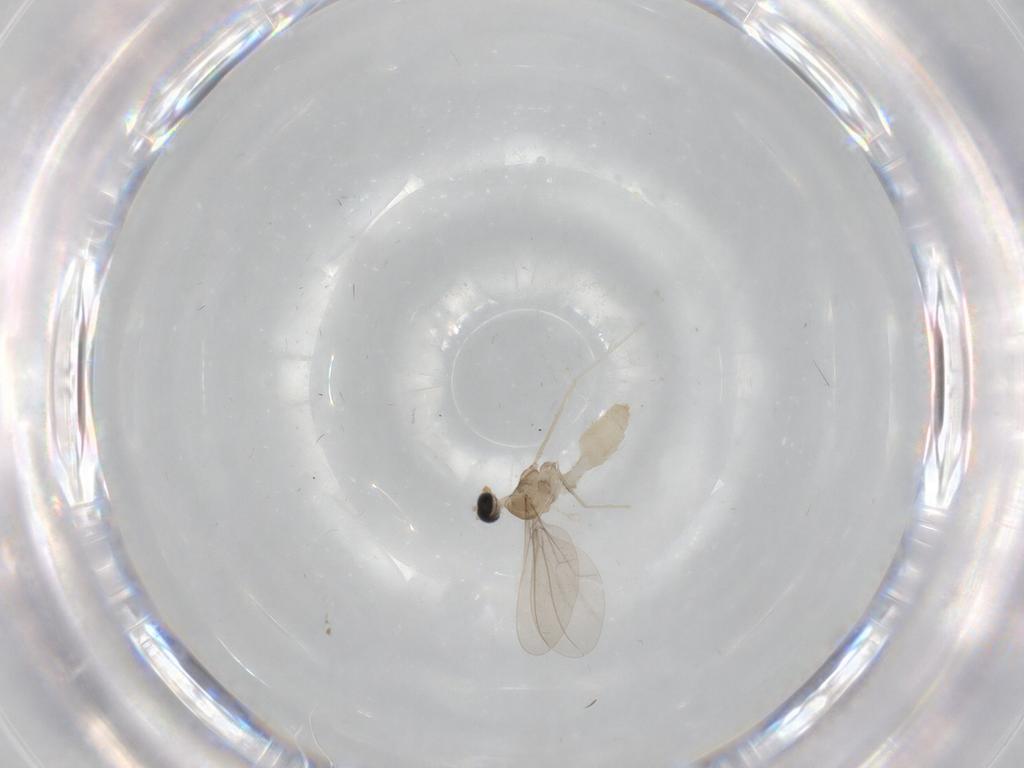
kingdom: Animalia
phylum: Arthropoda
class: Insecta
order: Diptera
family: Cecidomyiidae
